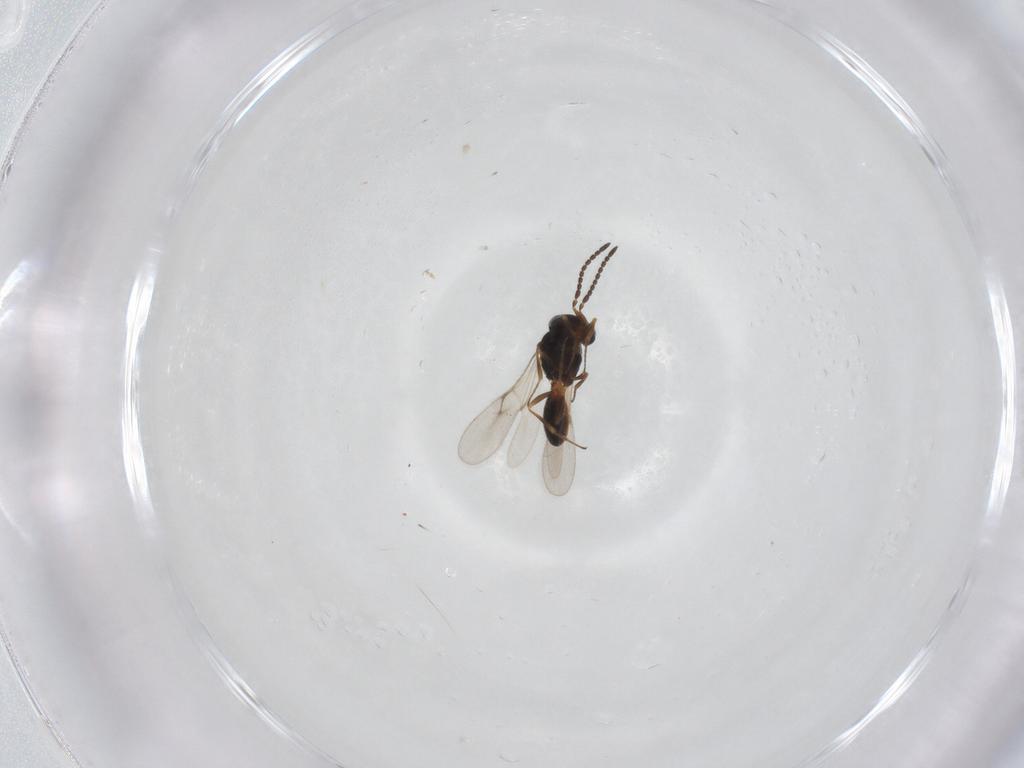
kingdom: Animalia
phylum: Arthropoda
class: Insecta
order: Hymenoptera
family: Scelionidae
